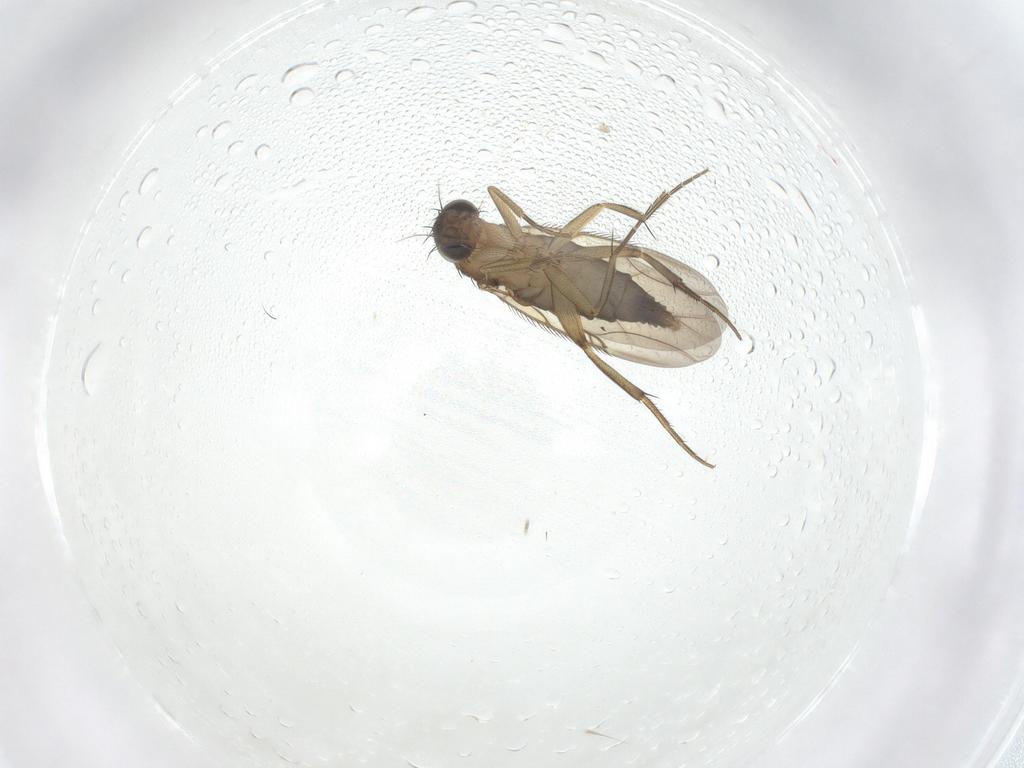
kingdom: Animalia
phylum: Arthropoda
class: Insecta
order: Diptera
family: Phoridae
